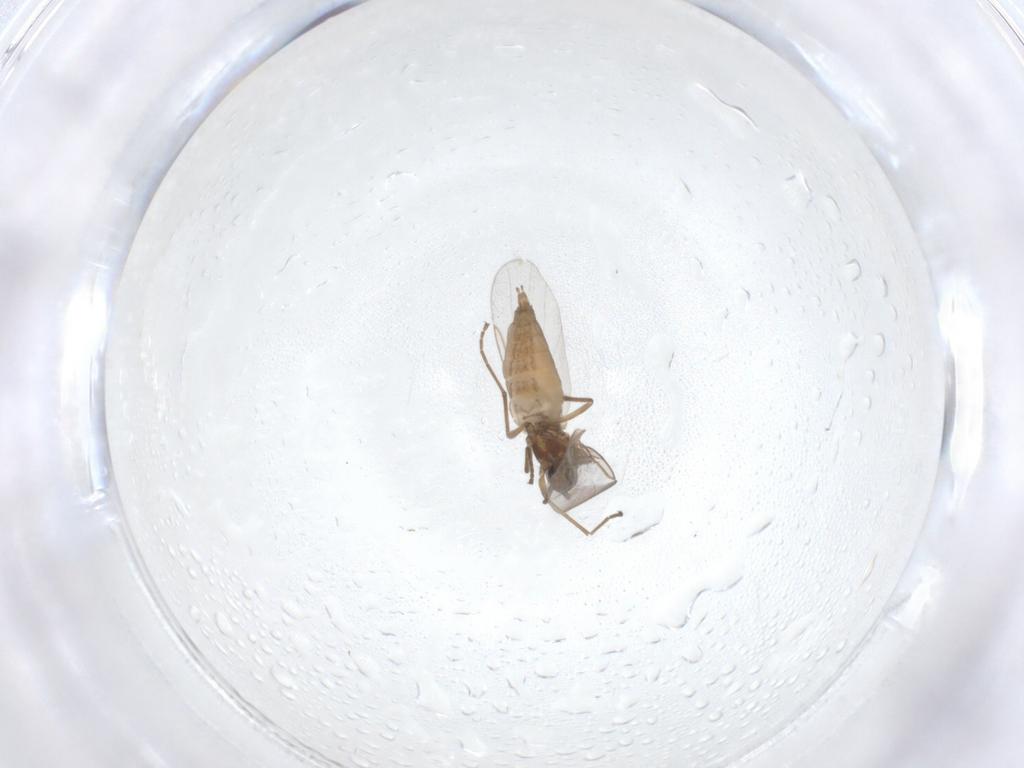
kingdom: Animalia
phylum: Arthropoda
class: Insecta
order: Diptera
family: Cecidomyiidae
